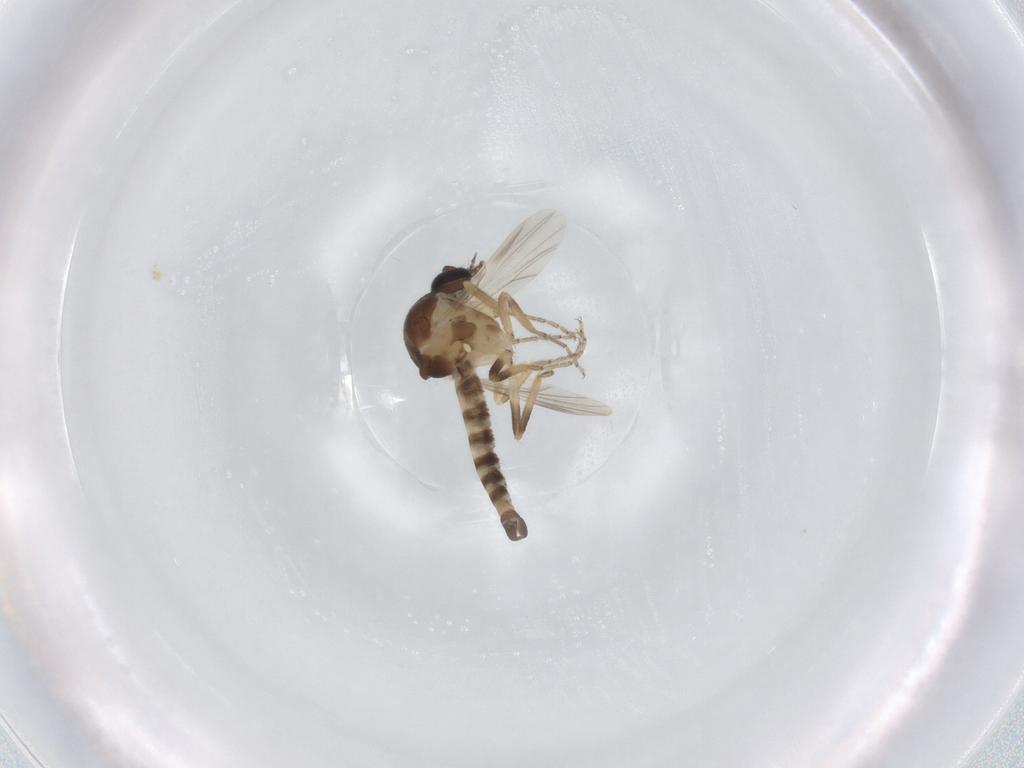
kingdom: Animalia
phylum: Arthropoda
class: Insecta
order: Diptera
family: Ceratopogonidae
